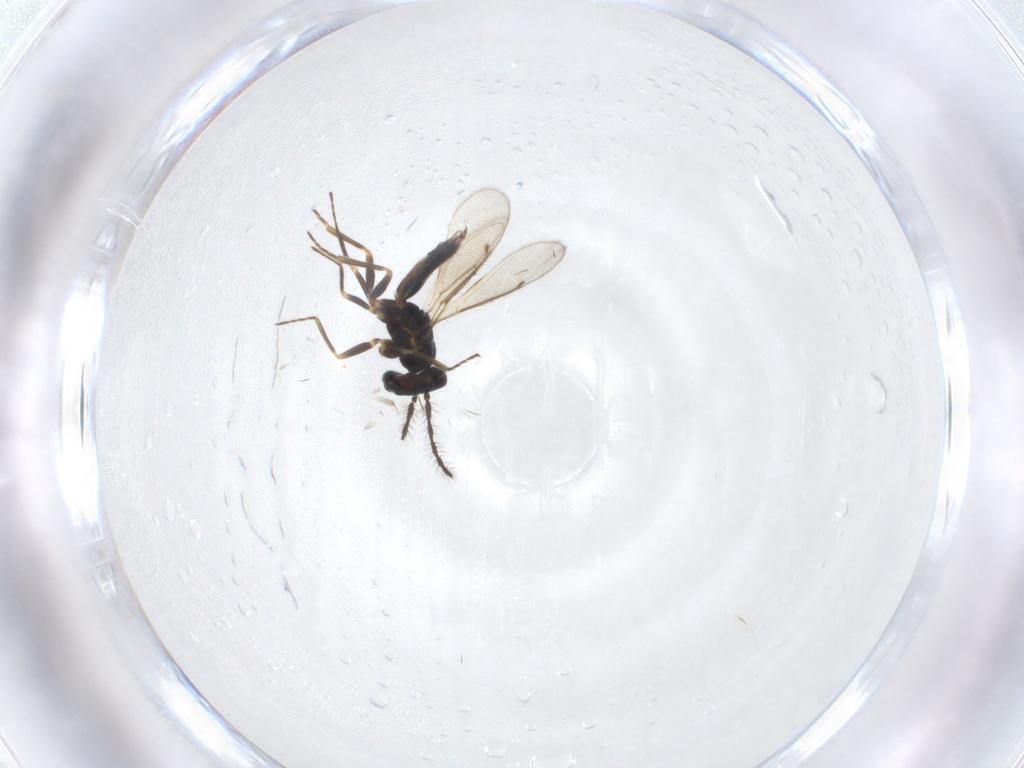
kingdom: Animalia
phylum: Arthropoda
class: Insecta
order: Hymenoptera
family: Eulophidae
